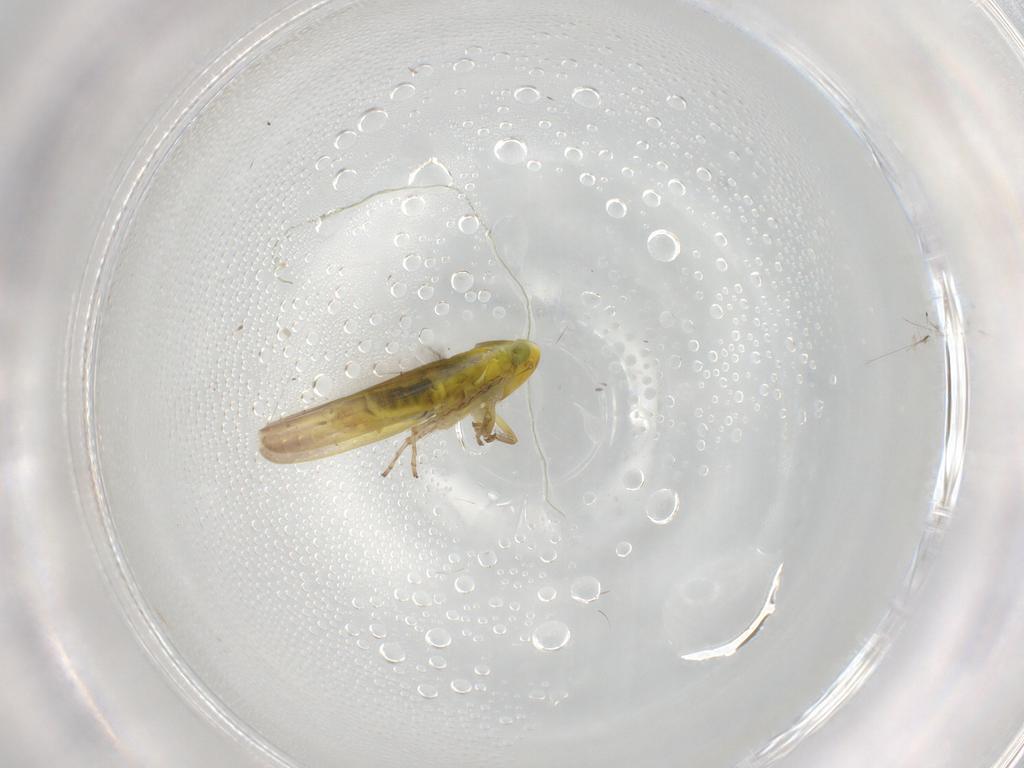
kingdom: Animalia
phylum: Arthropoda
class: Insecta
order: Hemiptera
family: Cicadellidae
